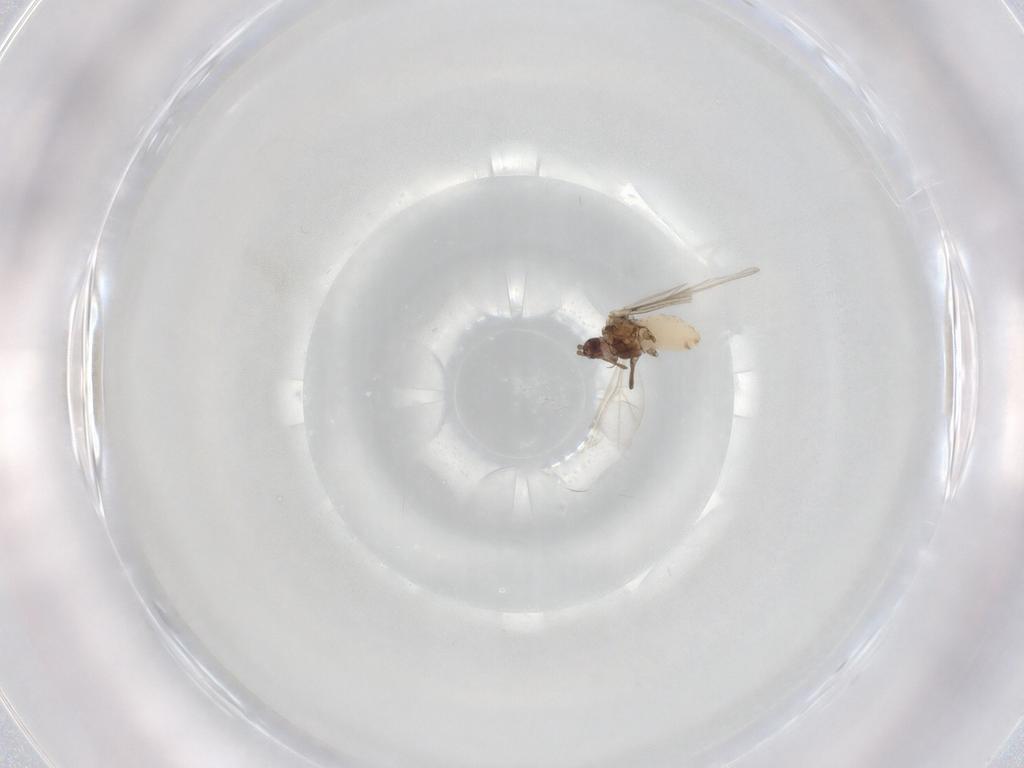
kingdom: Animalia
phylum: Arthropoda
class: Insecta
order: Hemiptera
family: Aphididae
